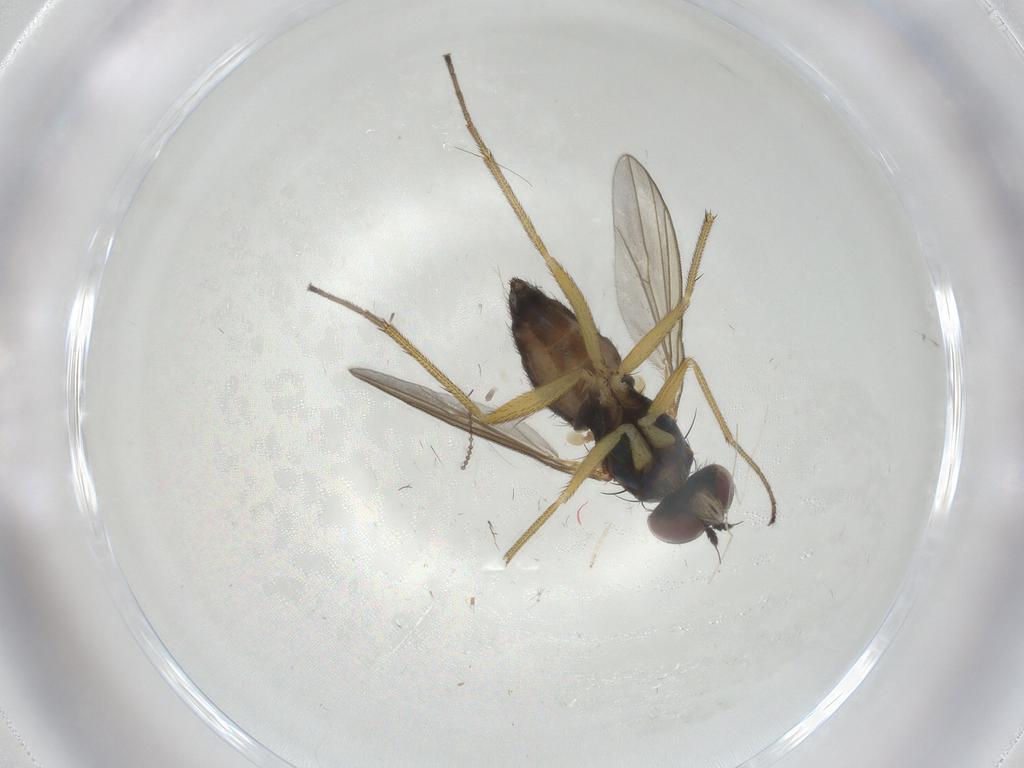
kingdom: Animalia
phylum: Arthropoda
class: Insecta
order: Diptera
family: Dolichopodidae
